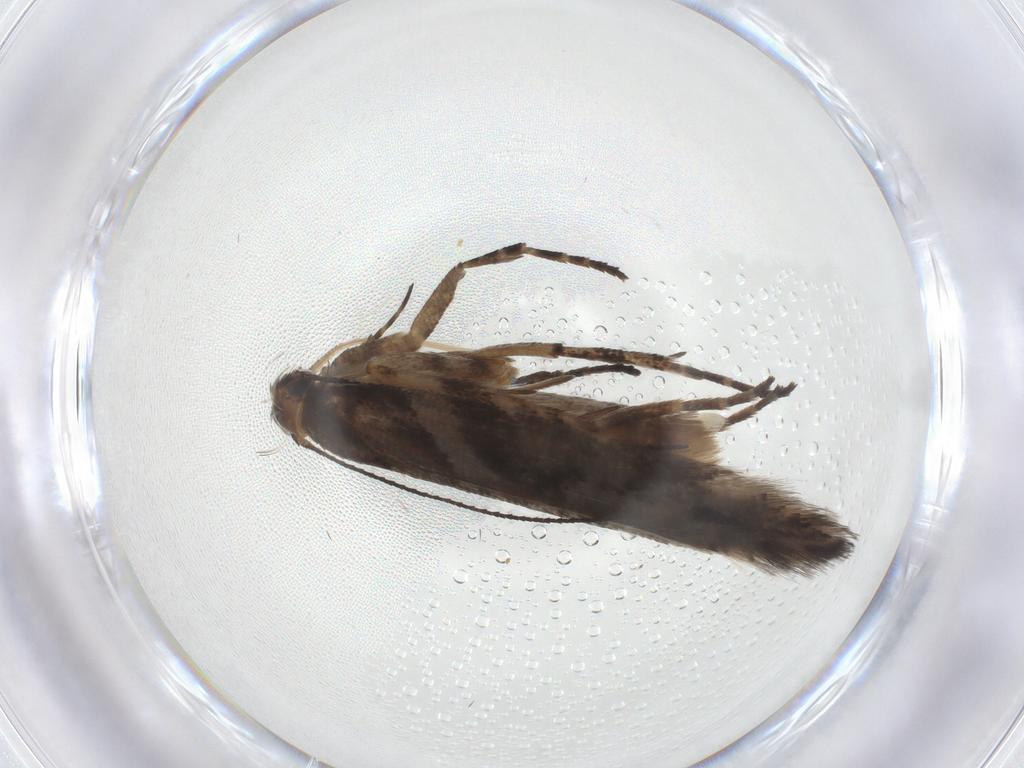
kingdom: Animalia
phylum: Arthropoda
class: Insecta
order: Lepidoptera
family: Gelechiidae
